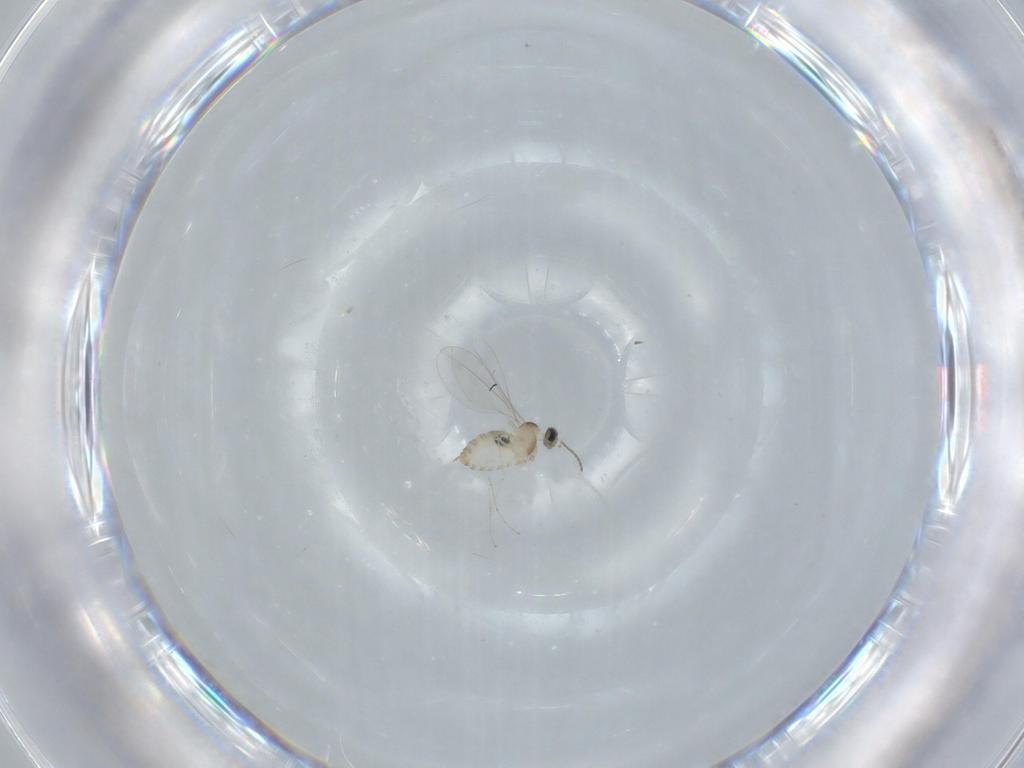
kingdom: Animalia
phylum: Arthropoda
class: Insecta
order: Diptera
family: Cecidomyiidae
